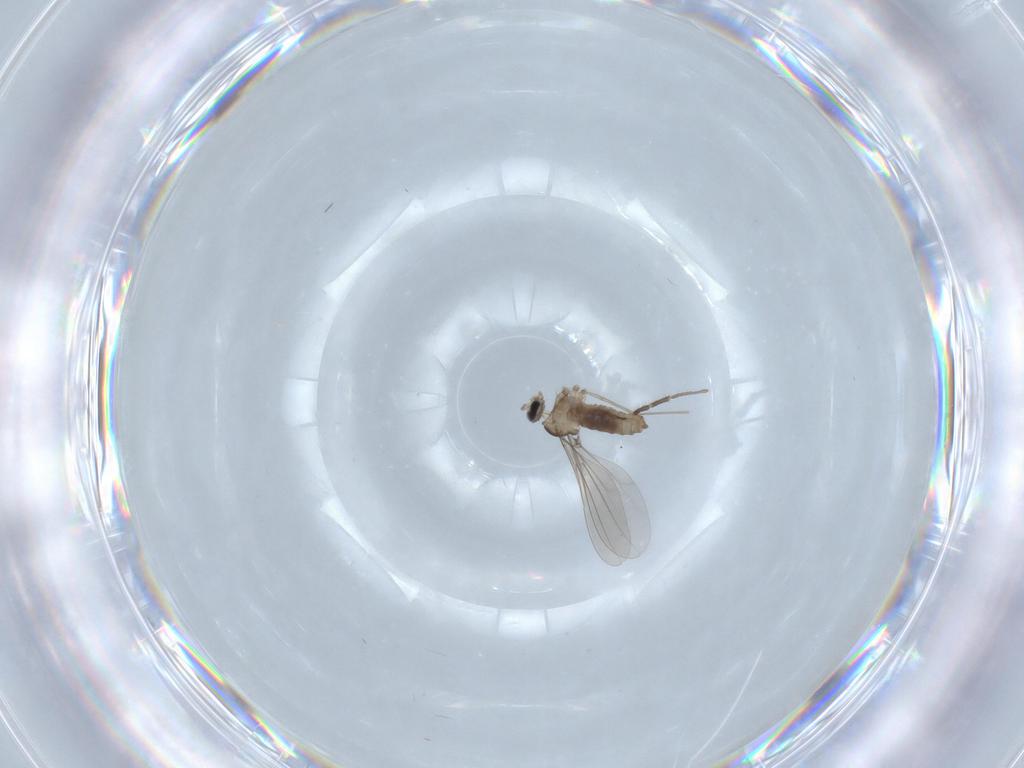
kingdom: Animalia
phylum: Arthropoda
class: Insecta
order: Diptera
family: Cecidomyiidae
